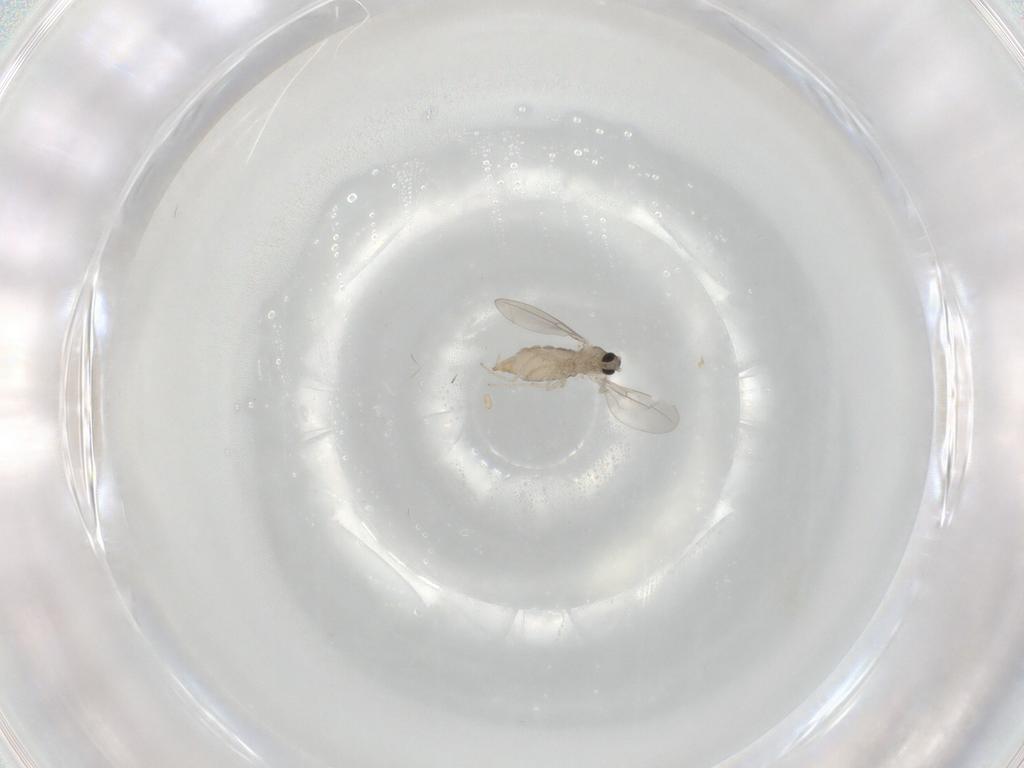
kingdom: Animalia
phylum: Arthropoda
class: Insecta
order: Diptera
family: Cecidomyiidae
